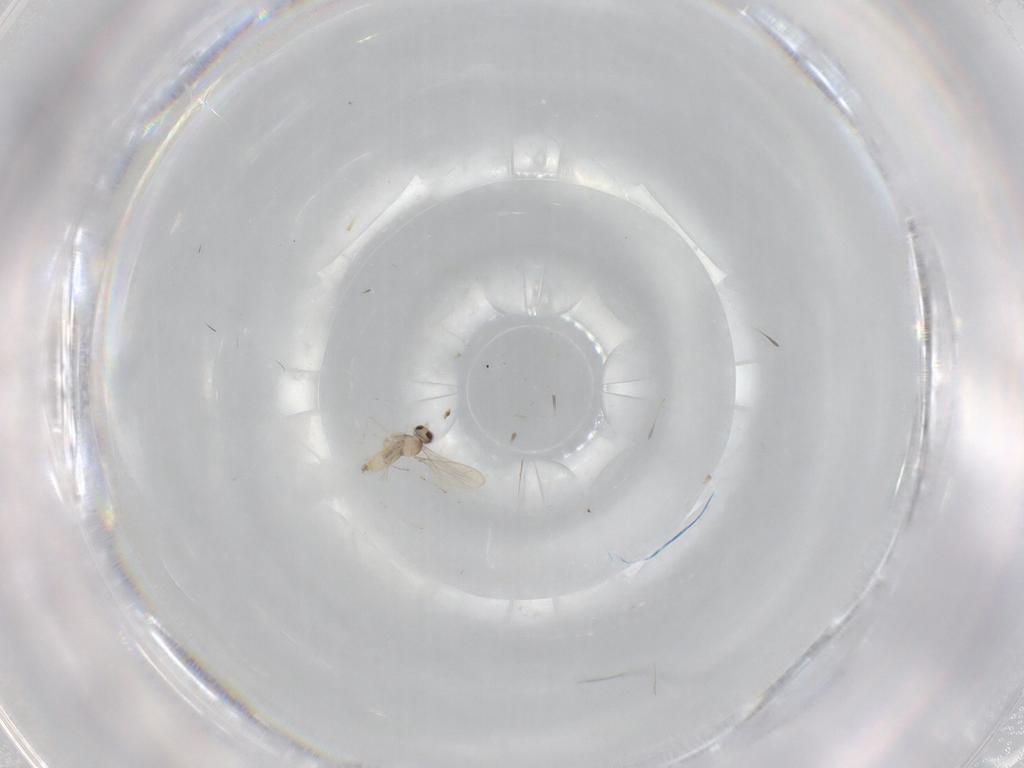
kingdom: Animalia
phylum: Arthropoda
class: Insecta
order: Diptera
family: Cecidomyiidae
